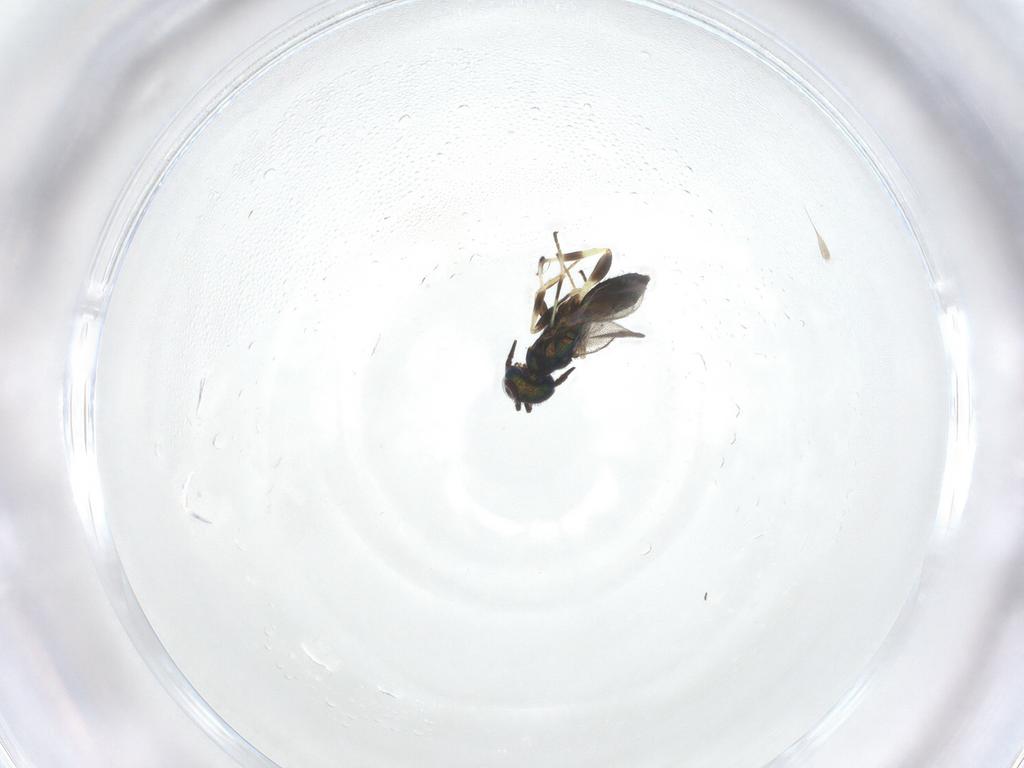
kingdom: Animalia
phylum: Arthropoda
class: Insecta
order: Hymenoptera
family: Eupelmidae
